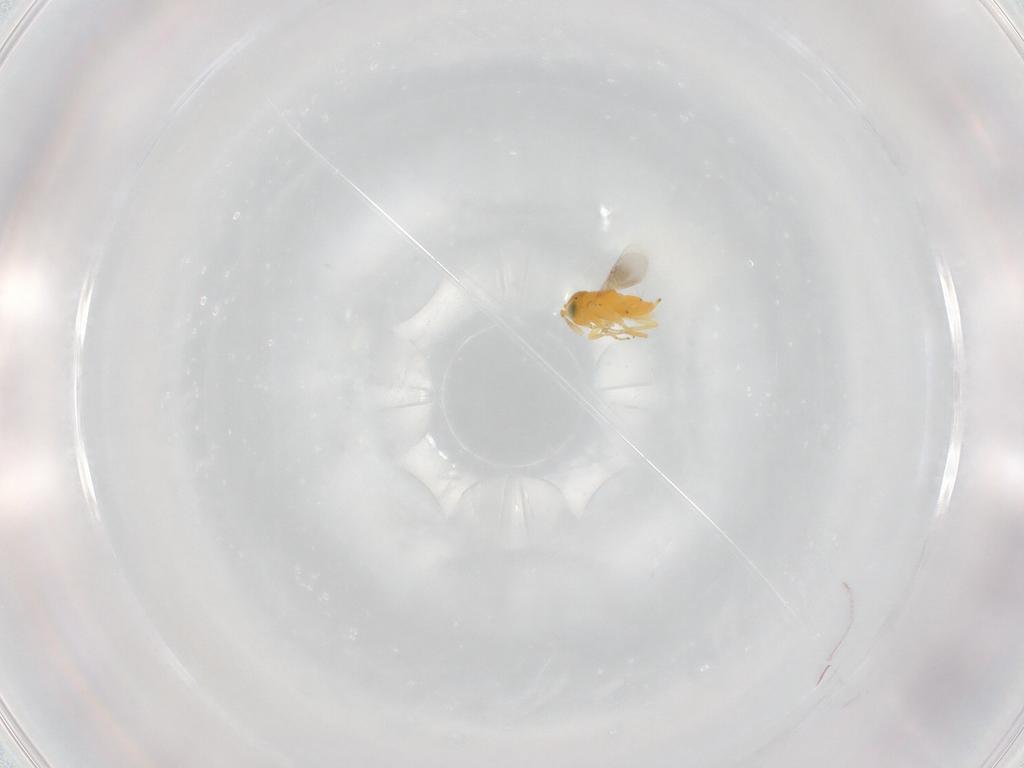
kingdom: Animalia
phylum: Arthropoda
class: Insecta
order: Hymenoptera
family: Encyrtidae
